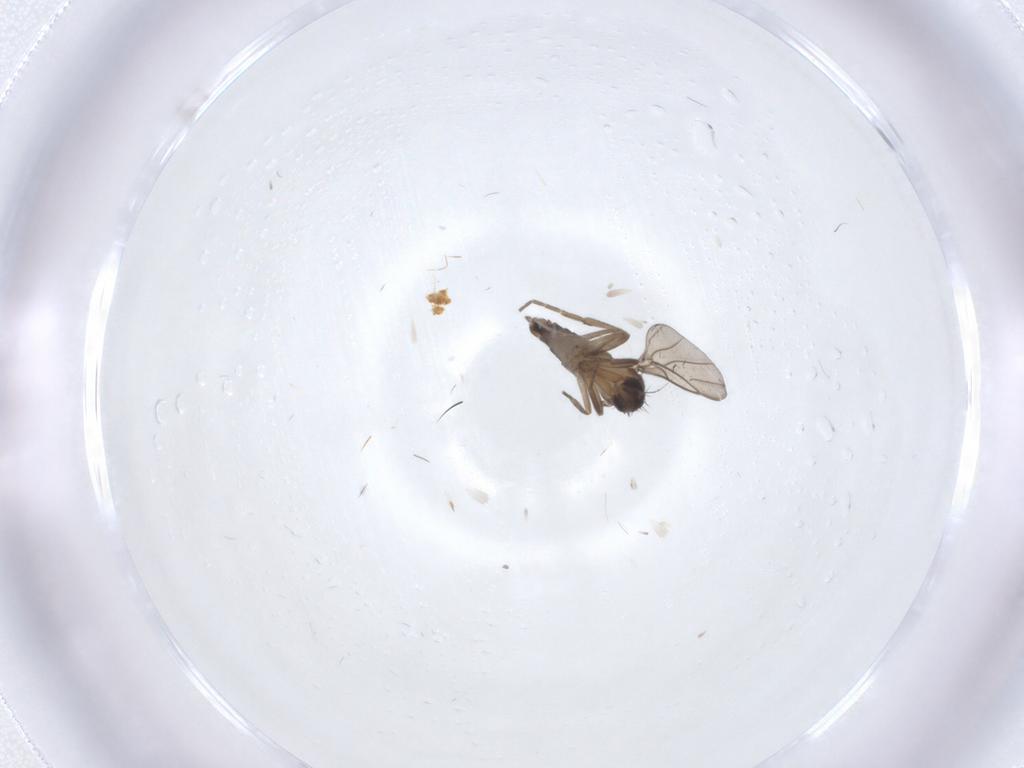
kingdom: Animalia
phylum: Arthropoda
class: Insecta
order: Diptera
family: Phoridae
